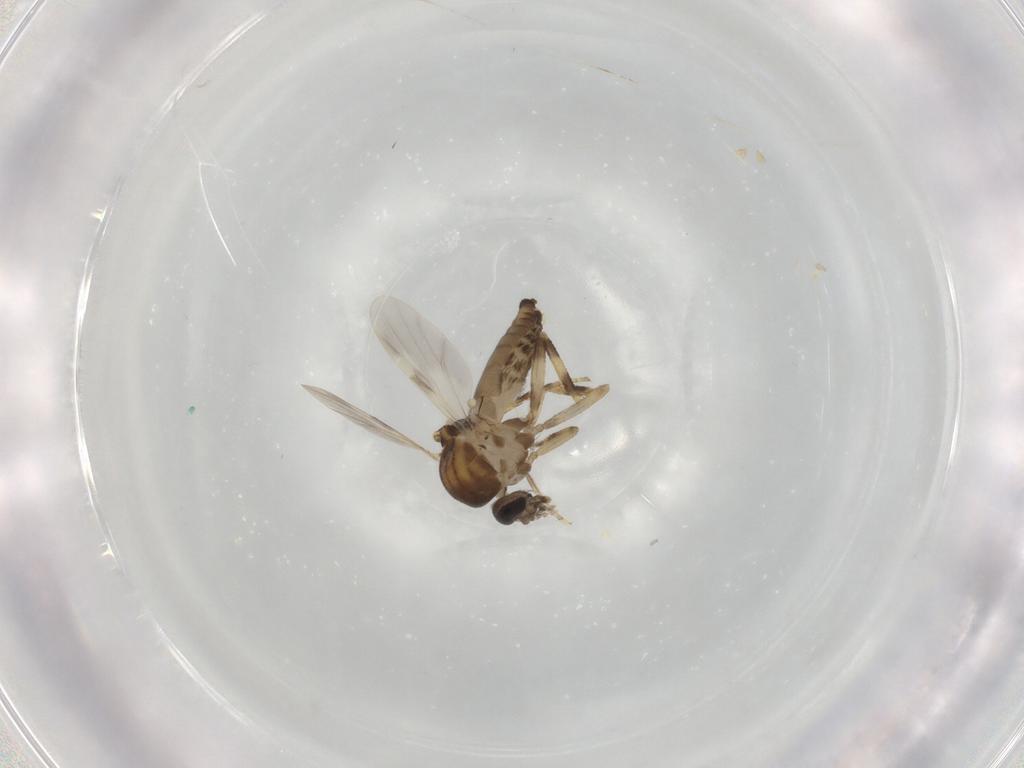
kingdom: Animalia
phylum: Arthropoda
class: Insecta
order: Diptera
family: Ceratopogonidae
